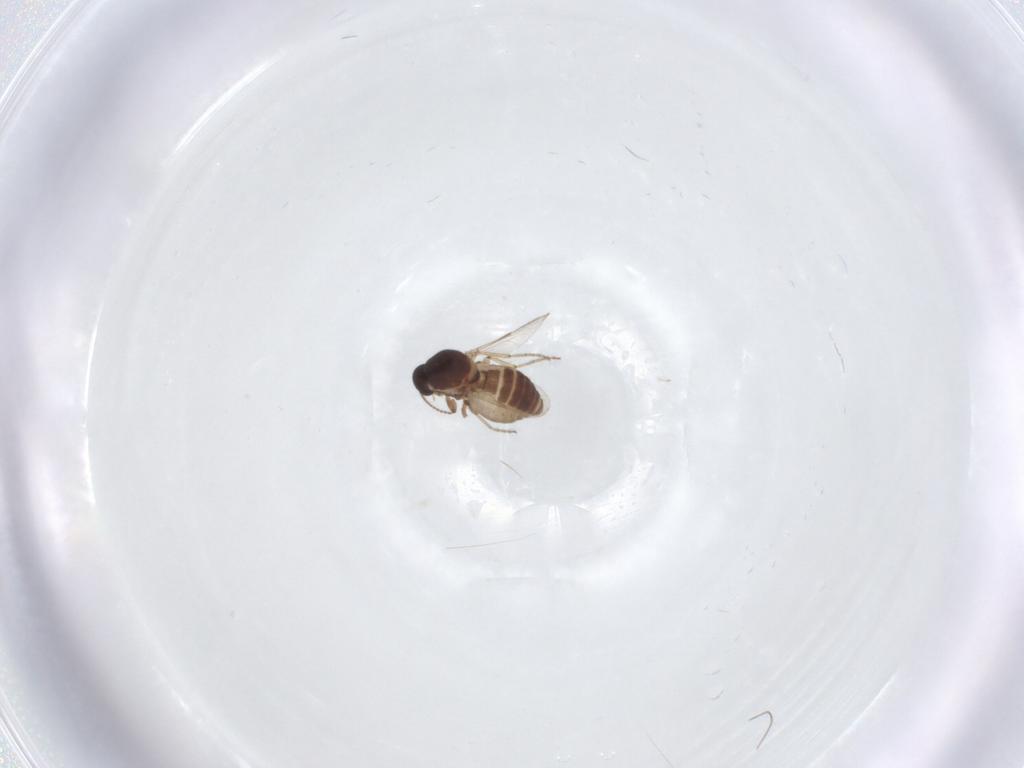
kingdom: Animalia
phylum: Arthropoda
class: Insecta
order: Diptera
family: Ceratopogonidae
